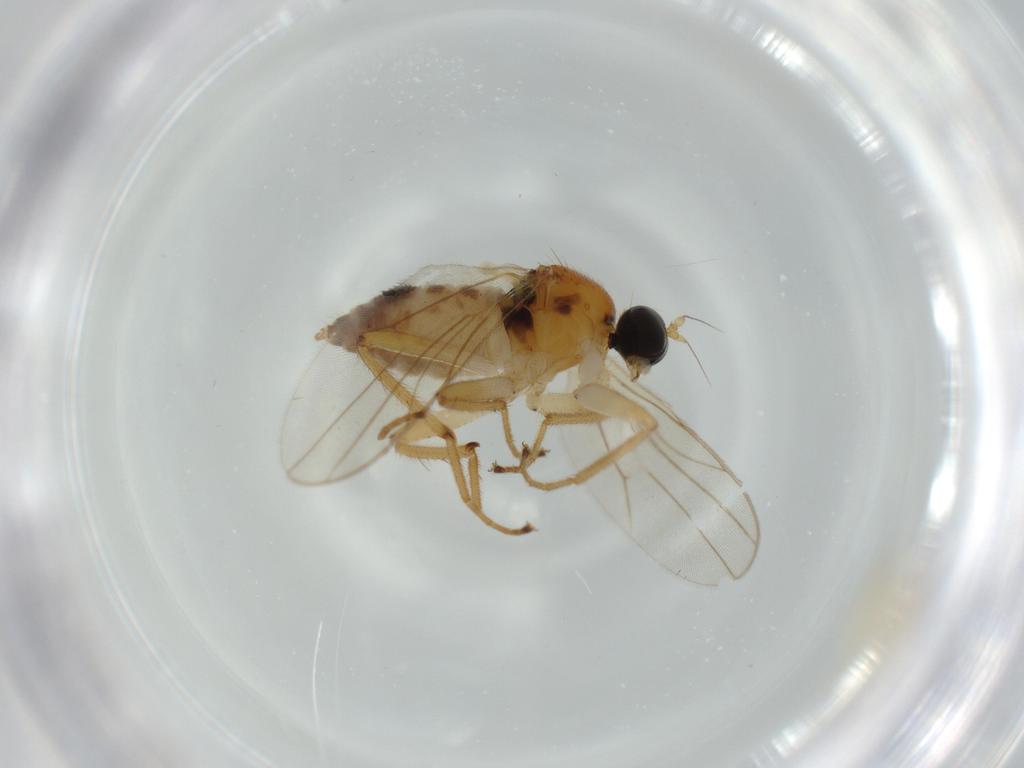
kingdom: Animalia
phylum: Arthropoda
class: Insecta
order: Diptera
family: Hybotidae
